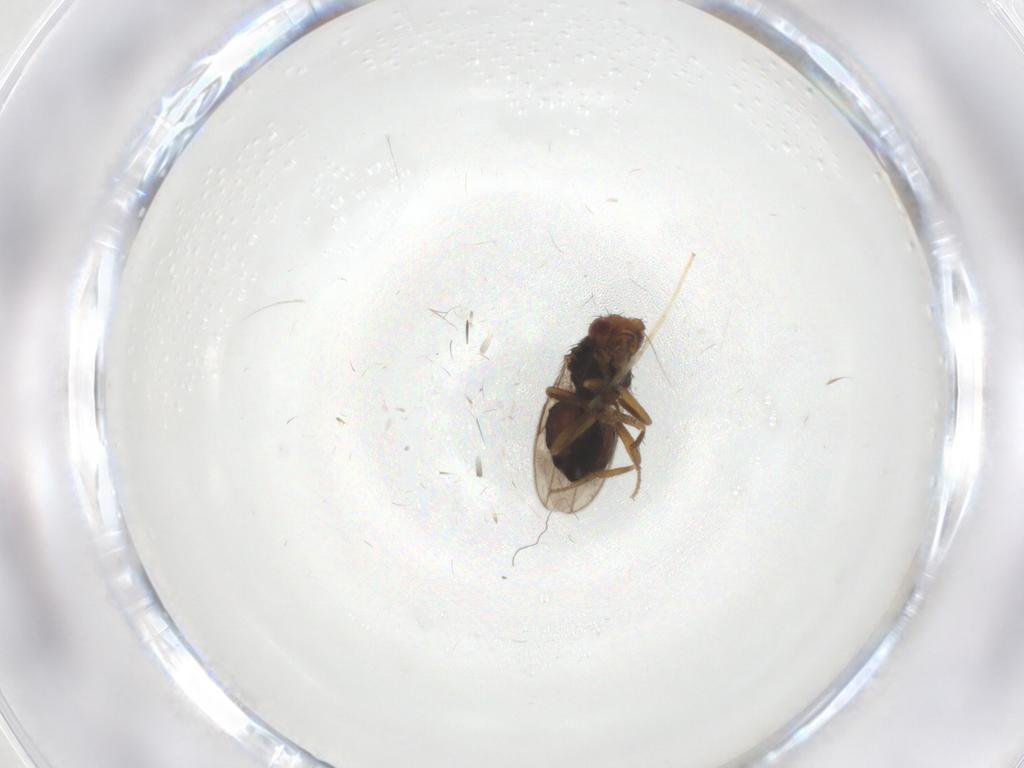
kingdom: Animalia
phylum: Arthropoda
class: Insecta
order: Diptera
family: Sphaeroceridae
